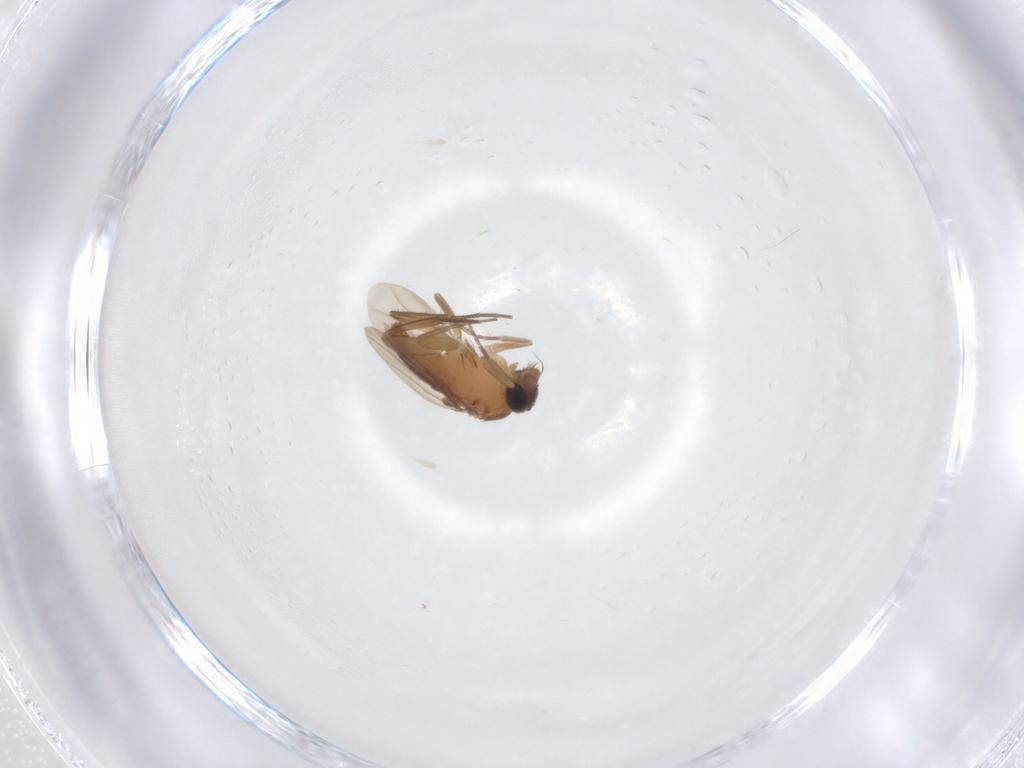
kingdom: Animalia
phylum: Arthropoda
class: Insecta
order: Diptera
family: Phoridae
